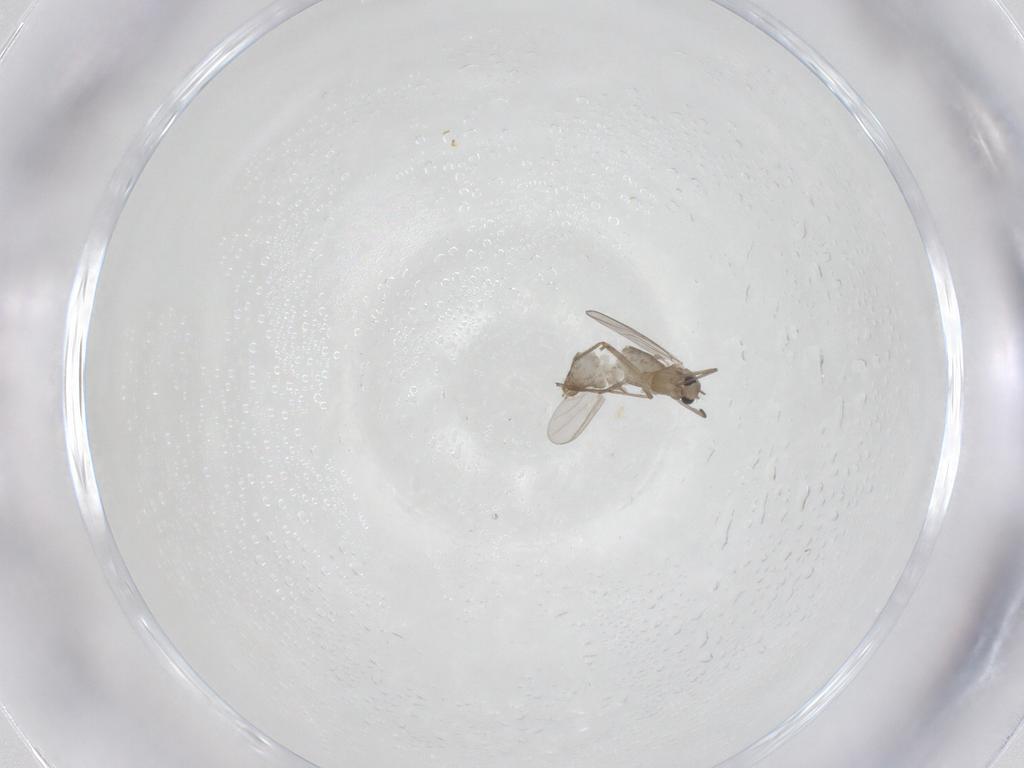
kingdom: Animalia
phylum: Arthropoda
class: Insecta
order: Diptera
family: Chironomidae
